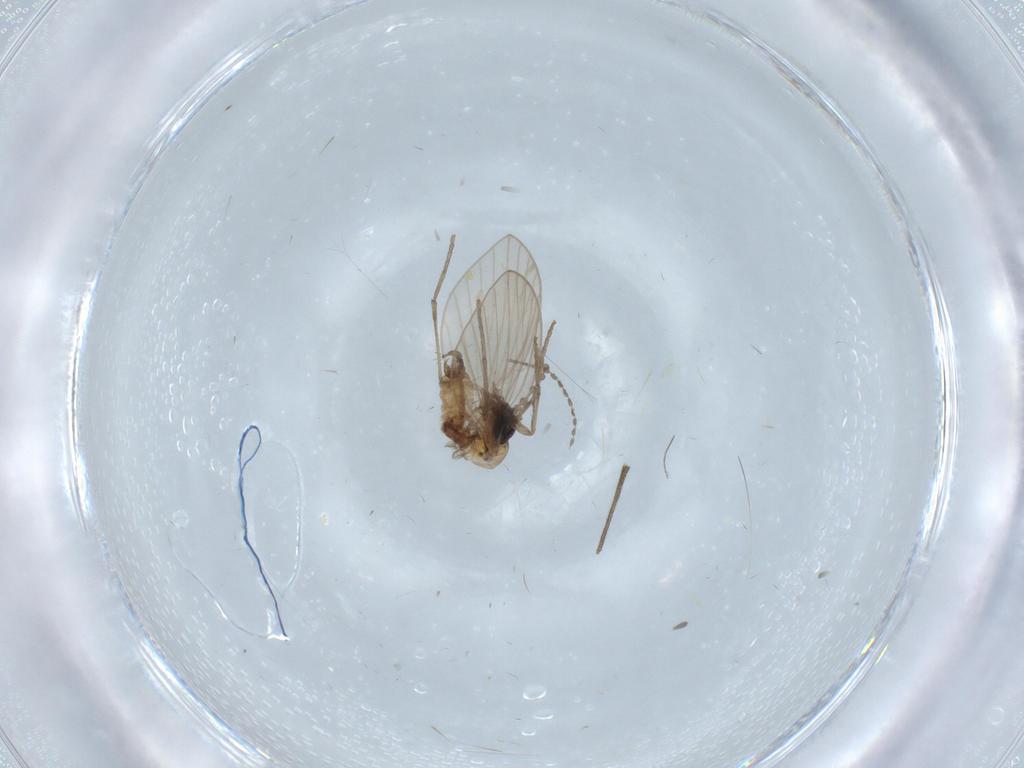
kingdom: Animalia
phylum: Arthropoda
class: Insecta
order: Diptera
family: Psychodidae
